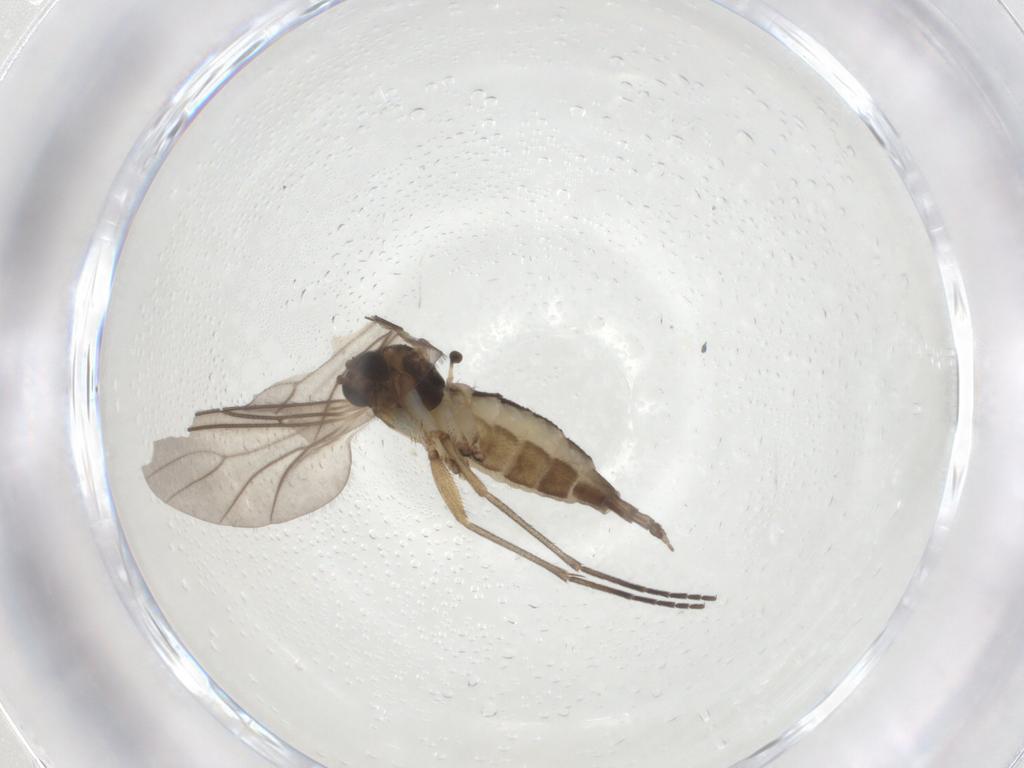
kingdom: Animalia
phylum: Arthropoda
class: Insecta
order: Diptera
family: Sciaridae
